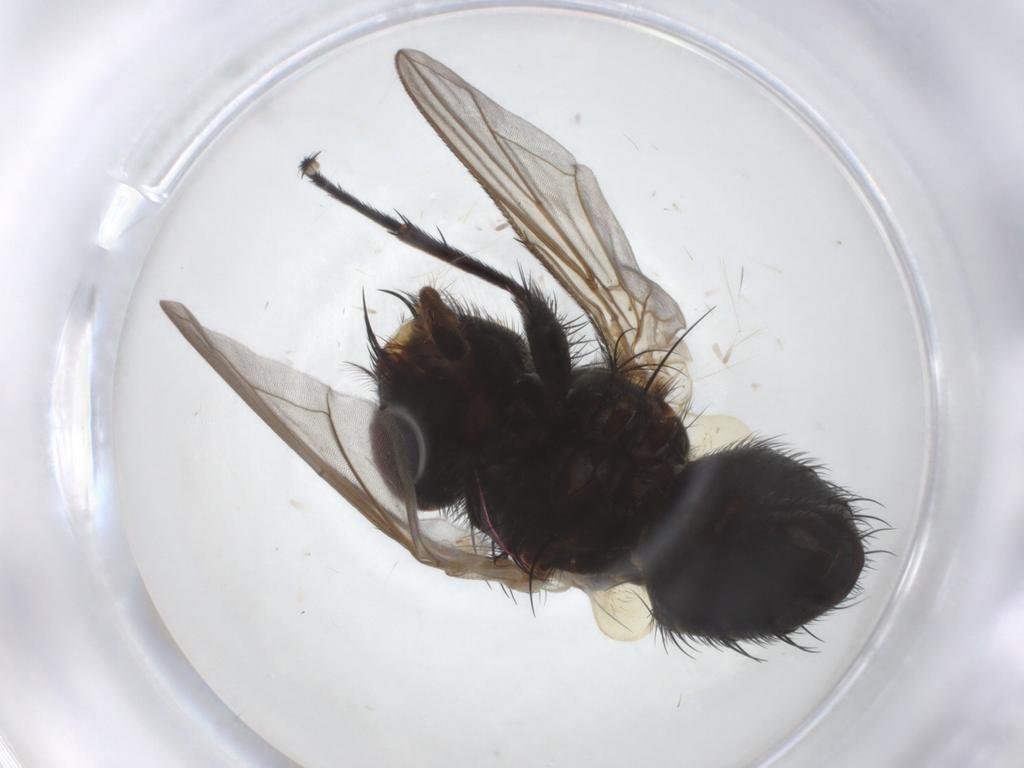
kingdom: Animalia
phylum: Arthropoda
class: Insecta
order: Diptera
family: Calliphoridae
